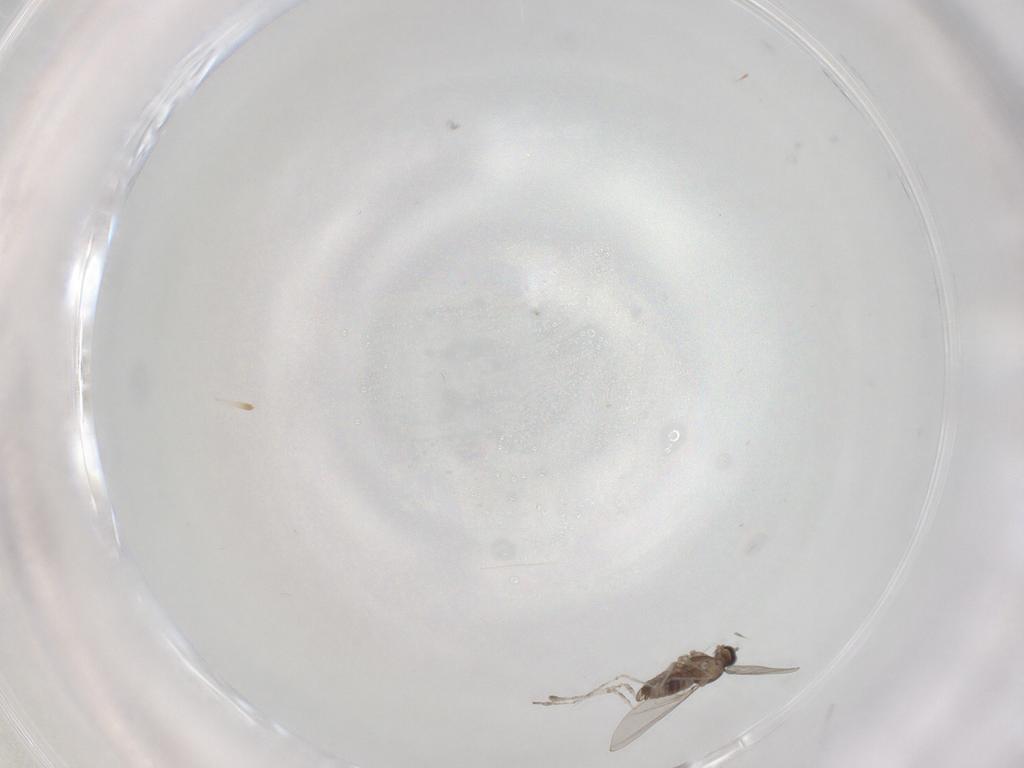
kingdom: Animalia
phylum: Arthropoda
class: Insecta
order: Diptera
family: Cecidomyiidae
